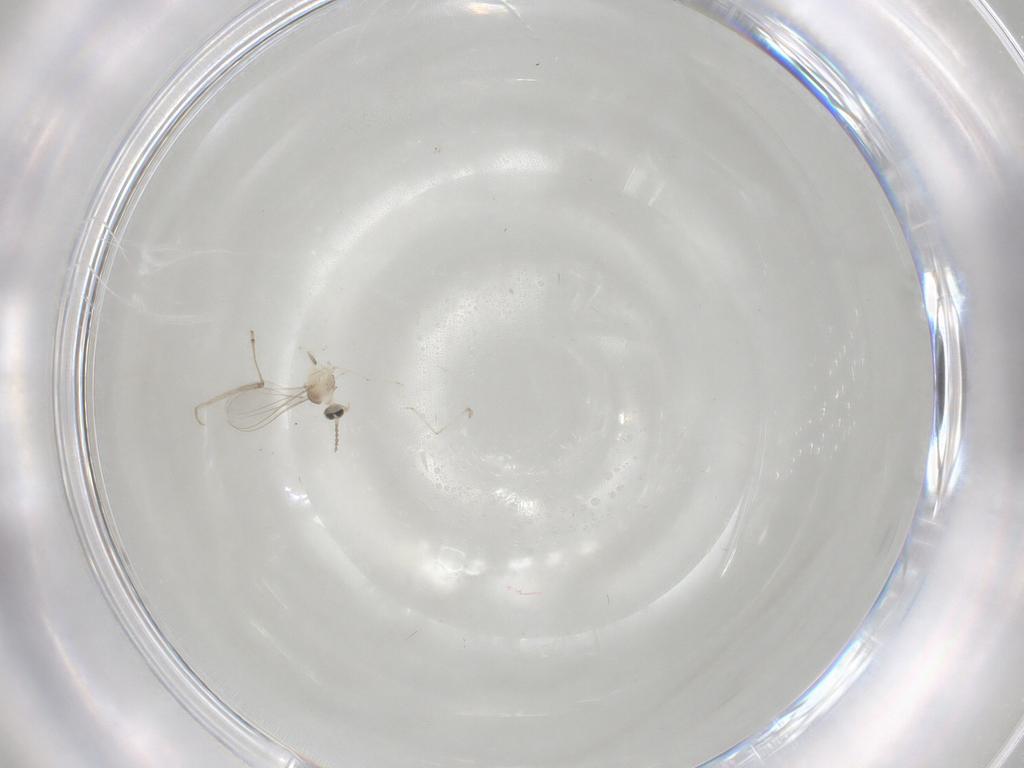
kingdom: Animalia
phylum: Arthropoda
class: Insecta
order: Diptera
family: Cecidomyiidae
